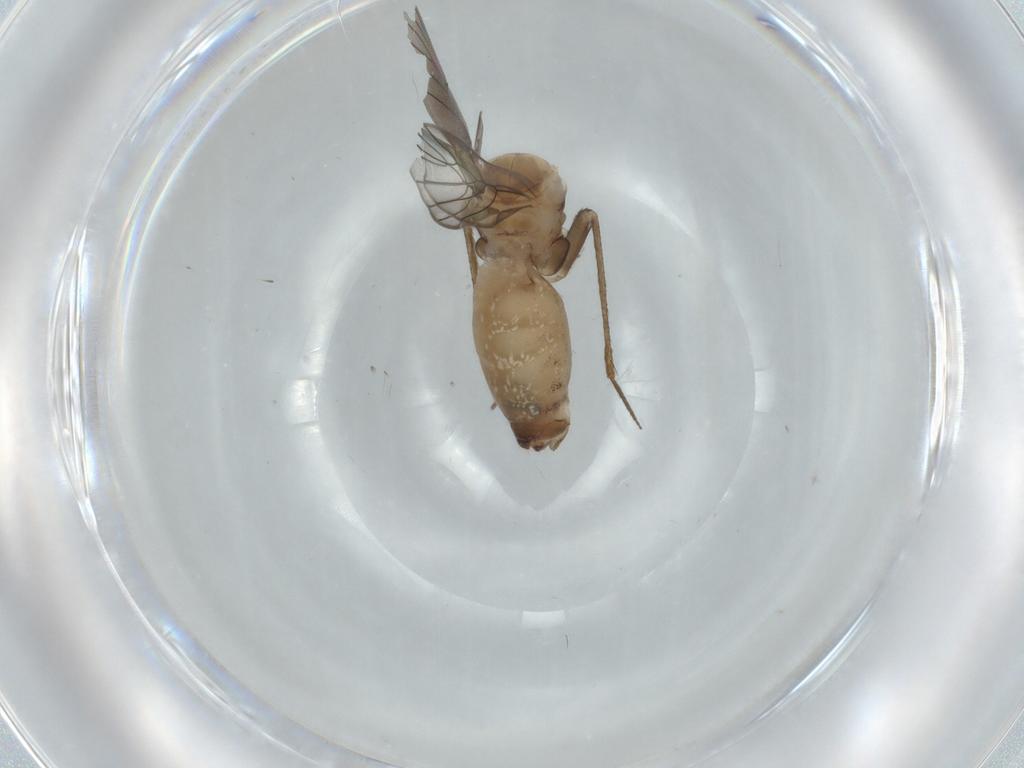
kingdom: Animalia
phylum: Arthropoda
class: Insecta
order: Psocodea
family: Lepidopsocidae
